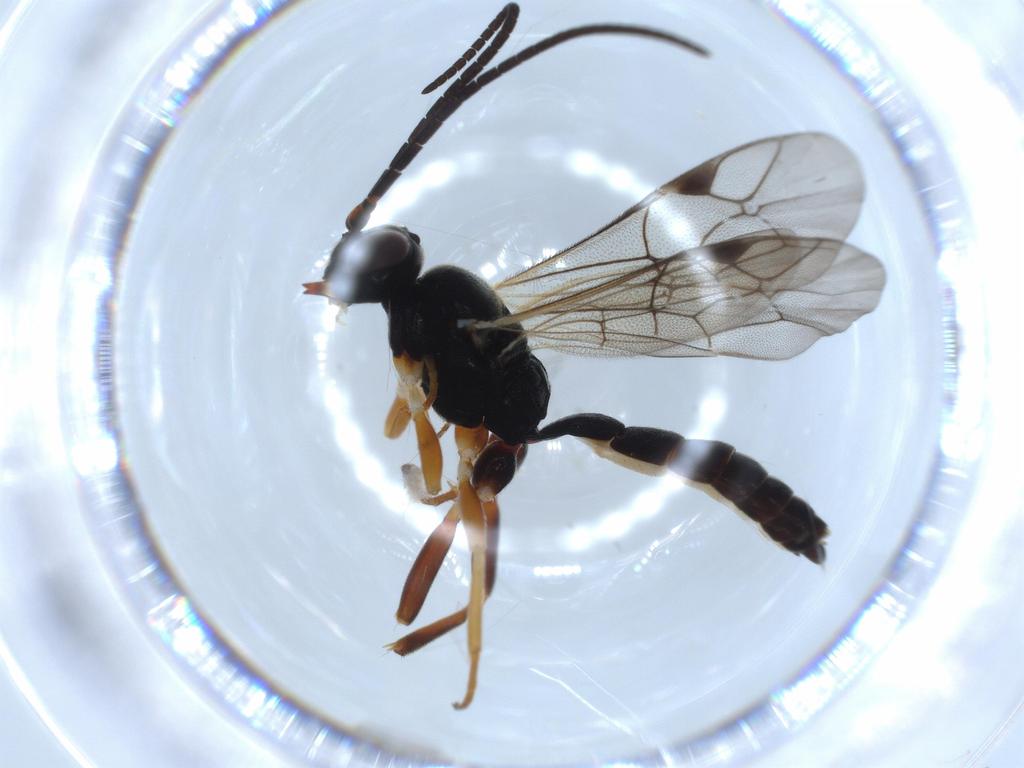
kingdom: Animalia
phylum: Arthropoda
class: Insecta
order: Hymenoptera
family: Ichneumonidae
